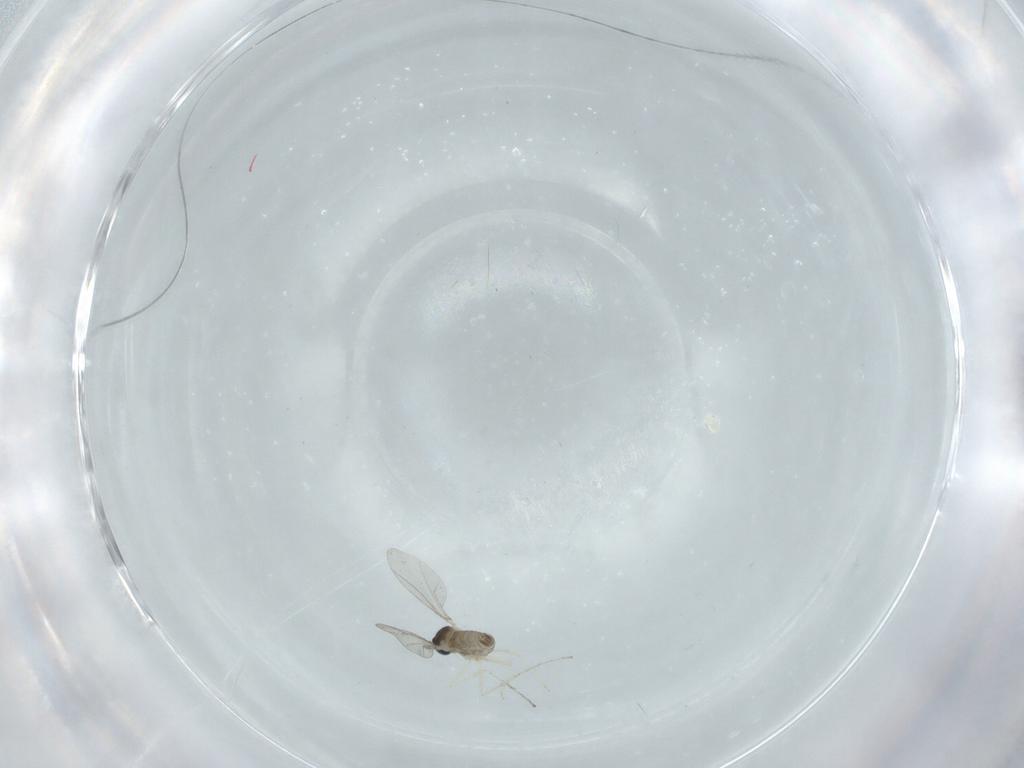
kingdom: Animalia
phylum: Arthropoda
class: Insecta
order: Diptera
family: Cecidomyiidae
